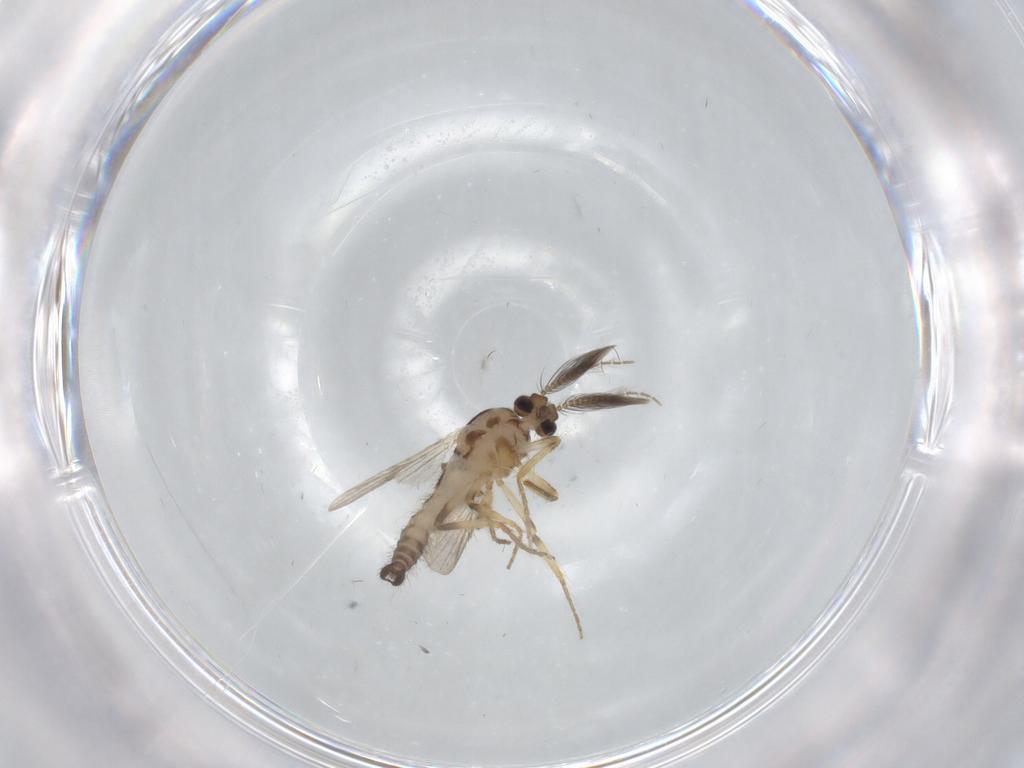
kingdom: Animalia
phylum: Arthropoda
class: Insecta
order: Diptera
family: Ceratopogonidae
